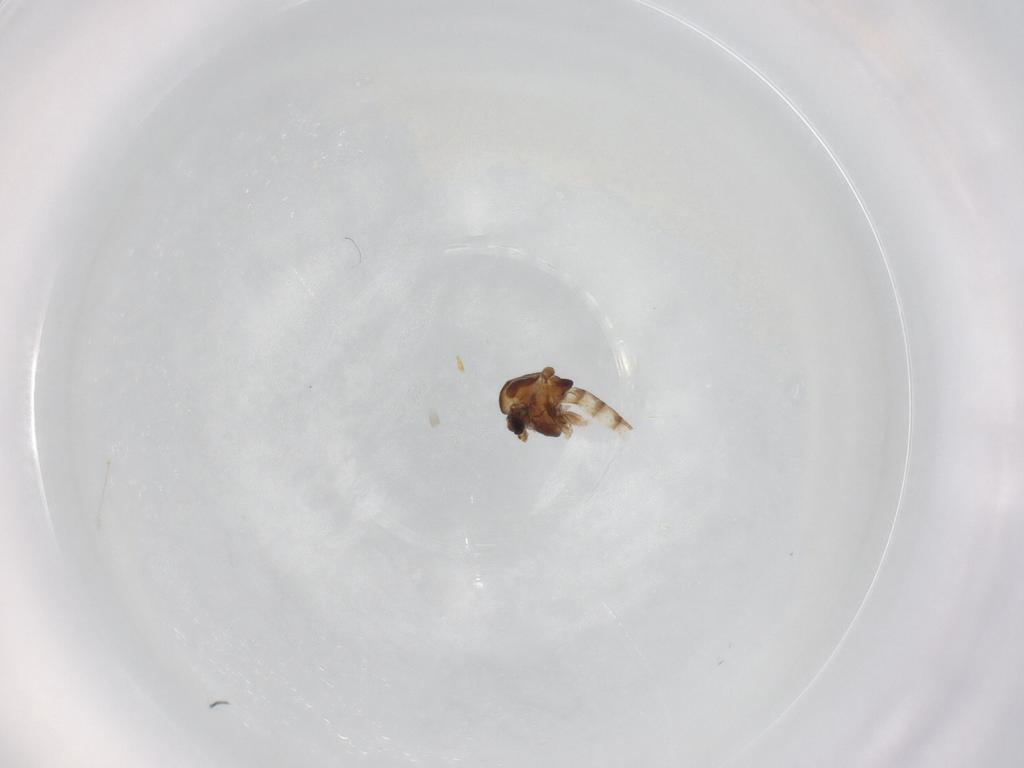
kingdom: Animalia
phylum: Arthropoda
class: Insecta
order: Diptera
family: Chironomidae
